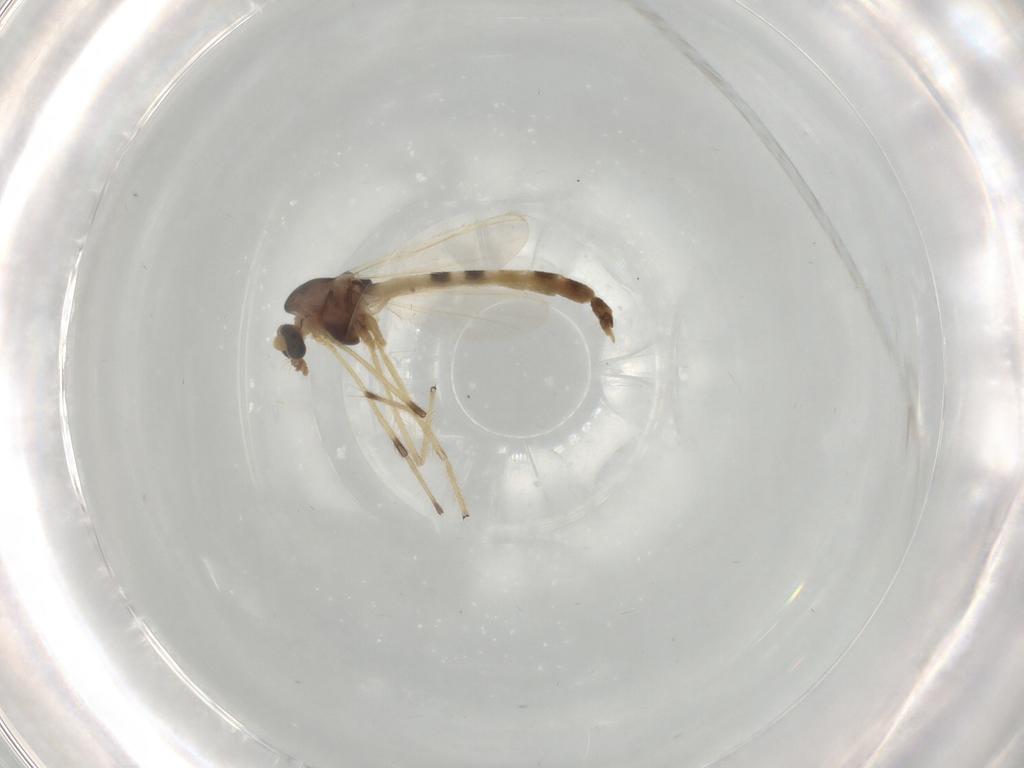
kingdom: Animalia
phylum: Arthropoda
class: Insecta
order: Diptera
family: Chironomidae
